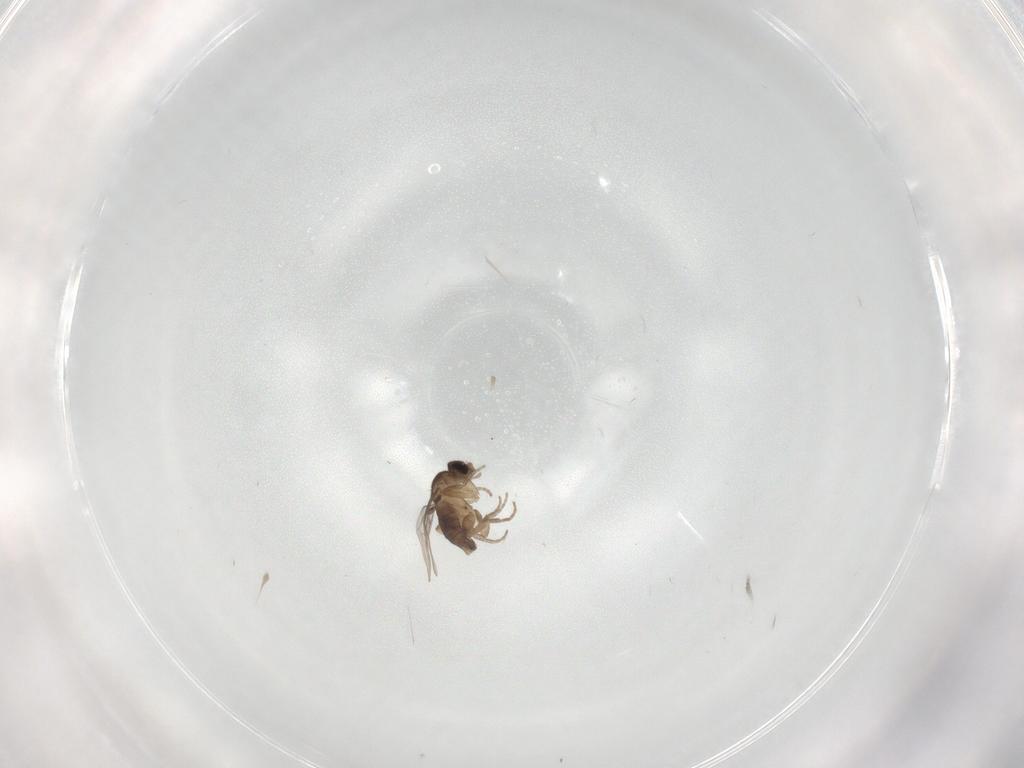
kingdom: Animalia
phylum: Arthropoda
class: Insecta
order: Diptera
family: Phoridae
